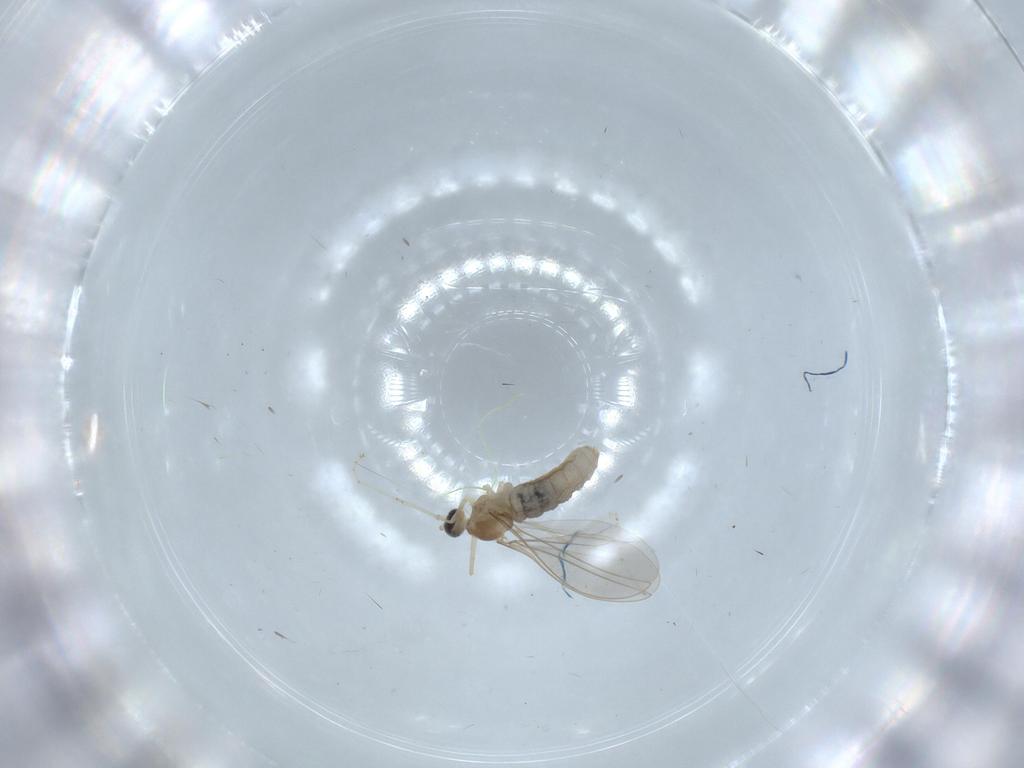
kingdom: Animalia
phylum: Arthropoda
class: Insecta
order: Diptera
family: Cecidomyiidae
